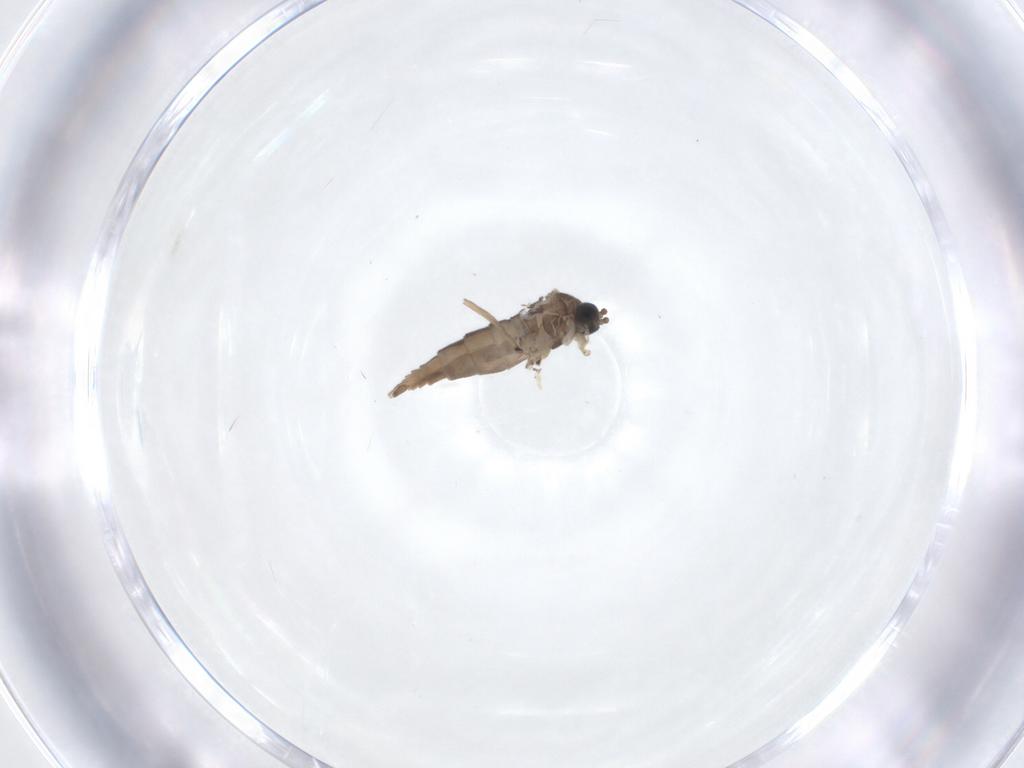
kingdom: Animalia
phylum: Arthropoda
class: Insecta
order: Diptera
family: Sciaridae
